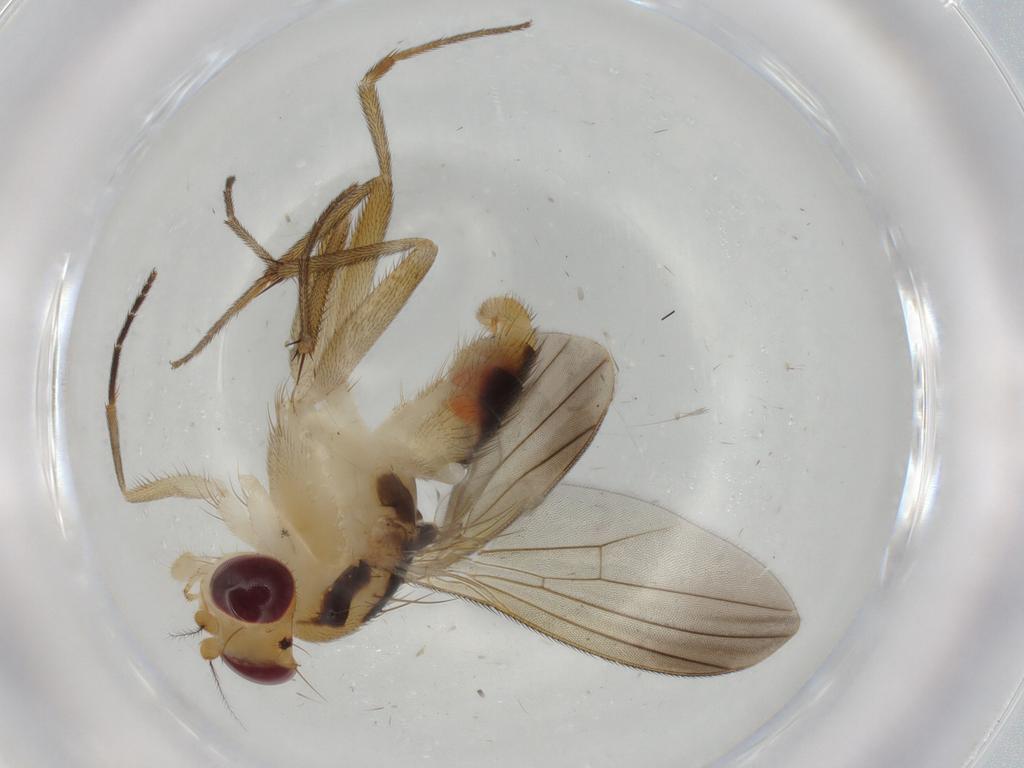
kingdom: Animalia
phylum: Arthropoda
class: Insecta
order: Diptera
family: Clusiidae
